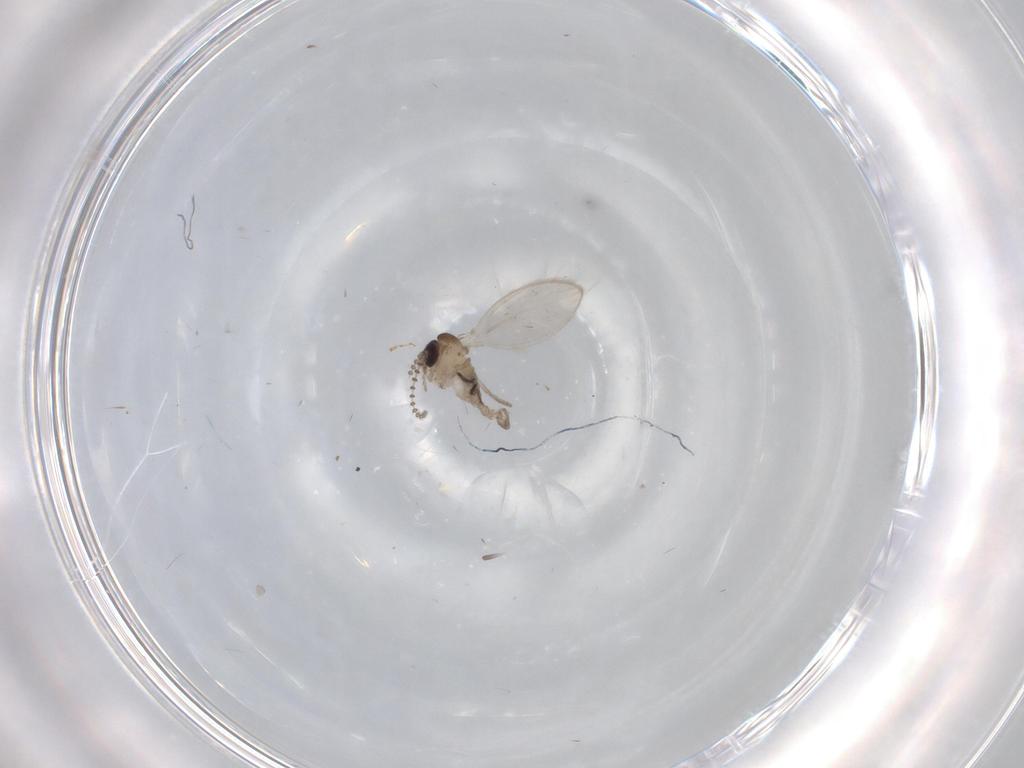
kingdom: Animalia
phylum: Arthropoda
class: Insecta
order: Diptera
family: Psychodidae
